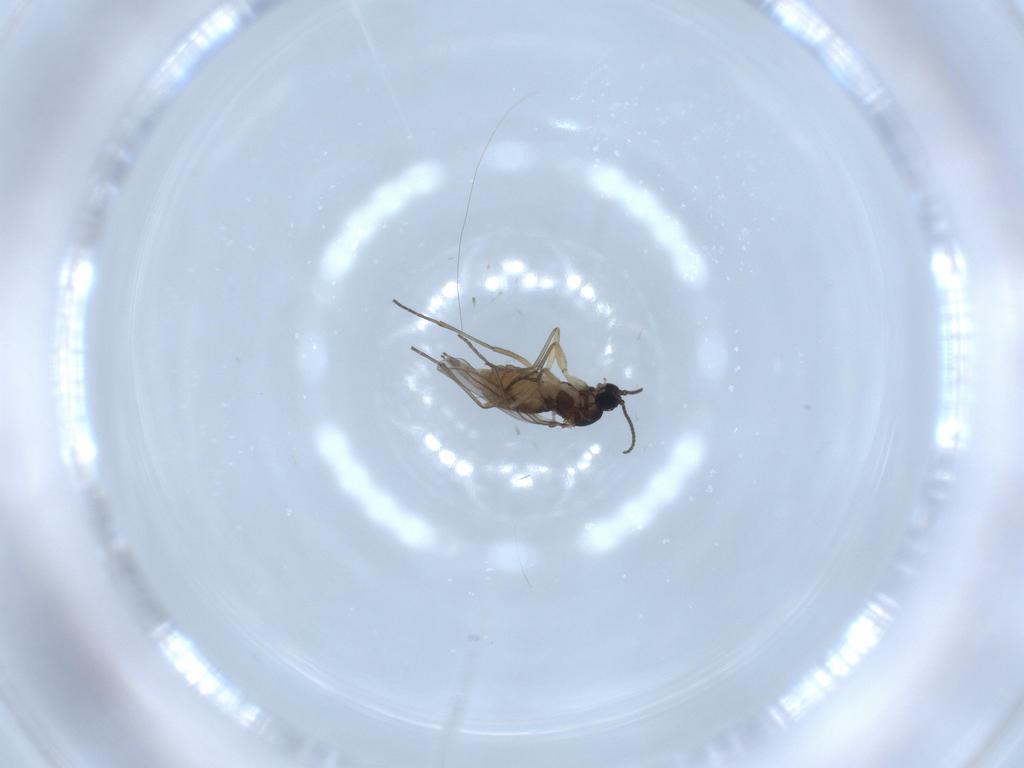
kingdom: Animalia
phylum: Arthropoda
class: Insecta
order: Diptera
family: Sciaridae
